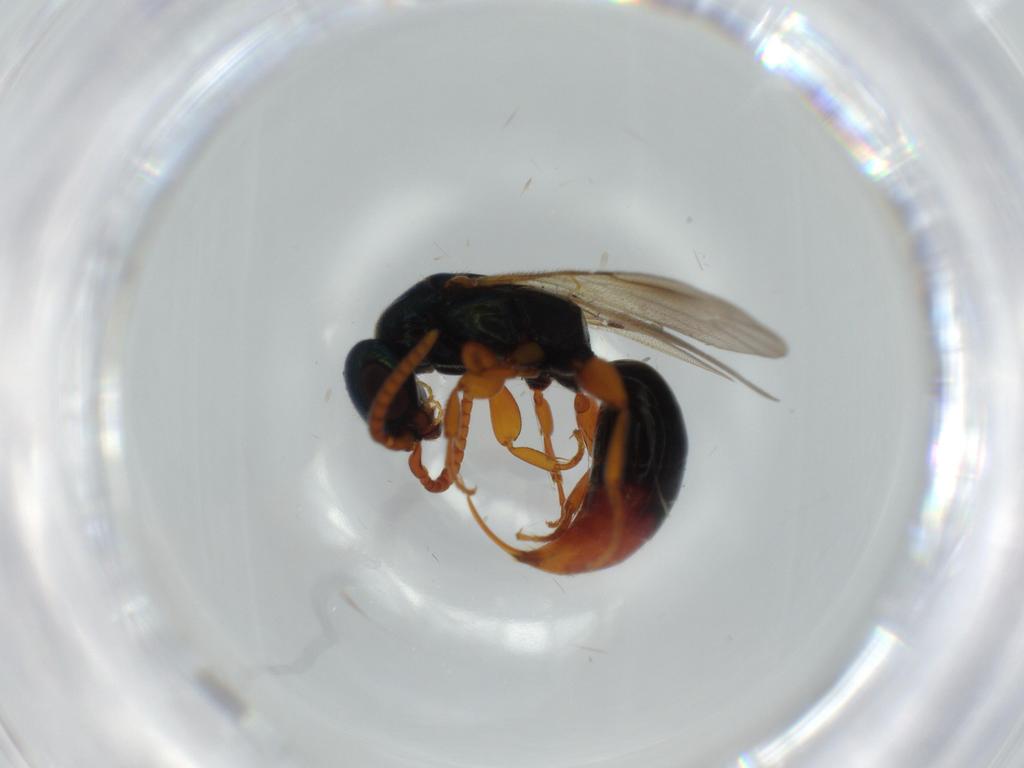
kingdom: Animalia
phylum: Arthropoda
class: Insecta
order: Hymenoptera
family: Bethylidae
